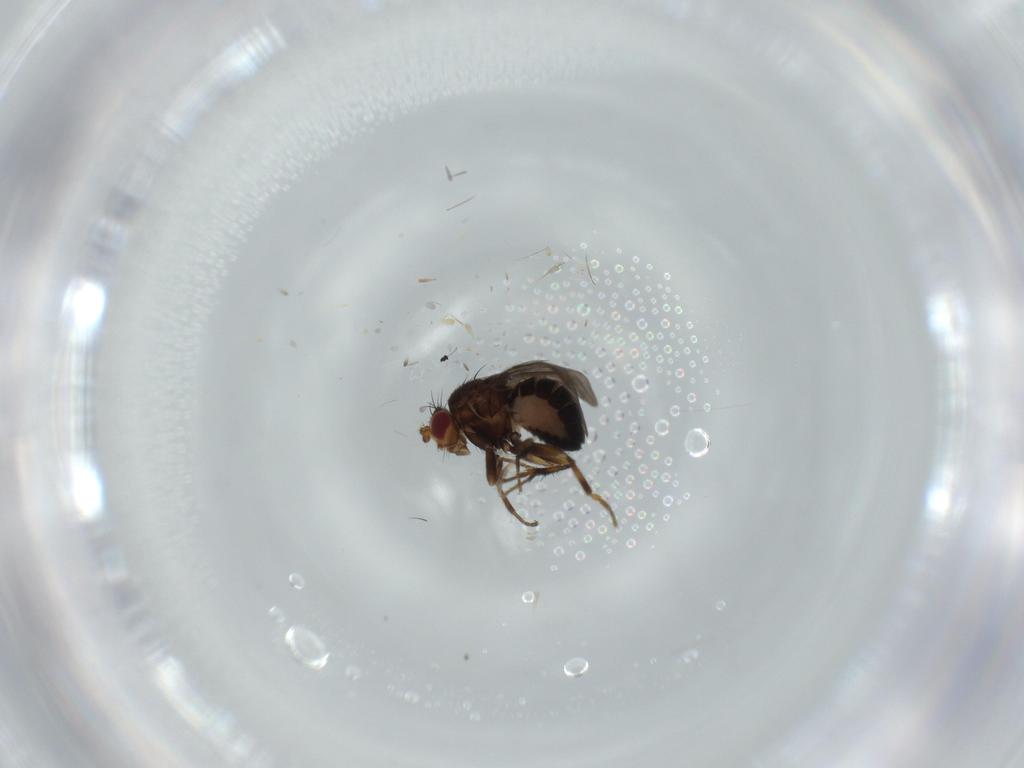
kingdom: Animalia
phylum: Arthropoda
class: Insecta
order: Diptera
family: Sphaeroceridae
